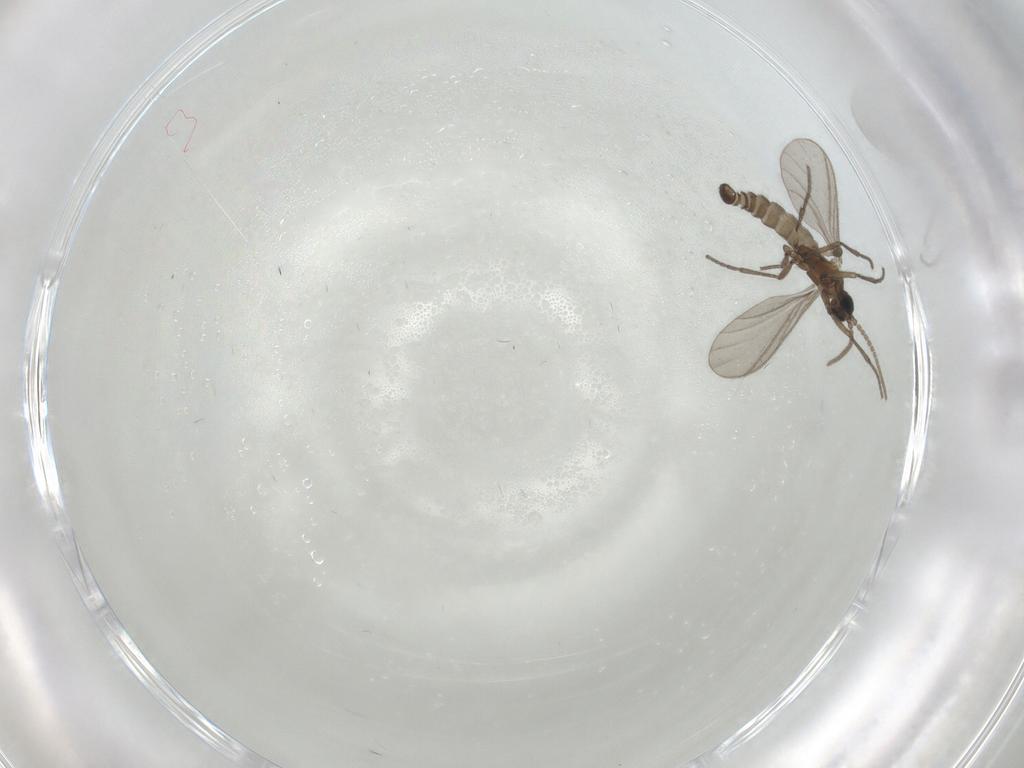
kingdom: Animalia
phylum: Arthropoda
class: Insecta
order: Diptera
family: Sciaridae
